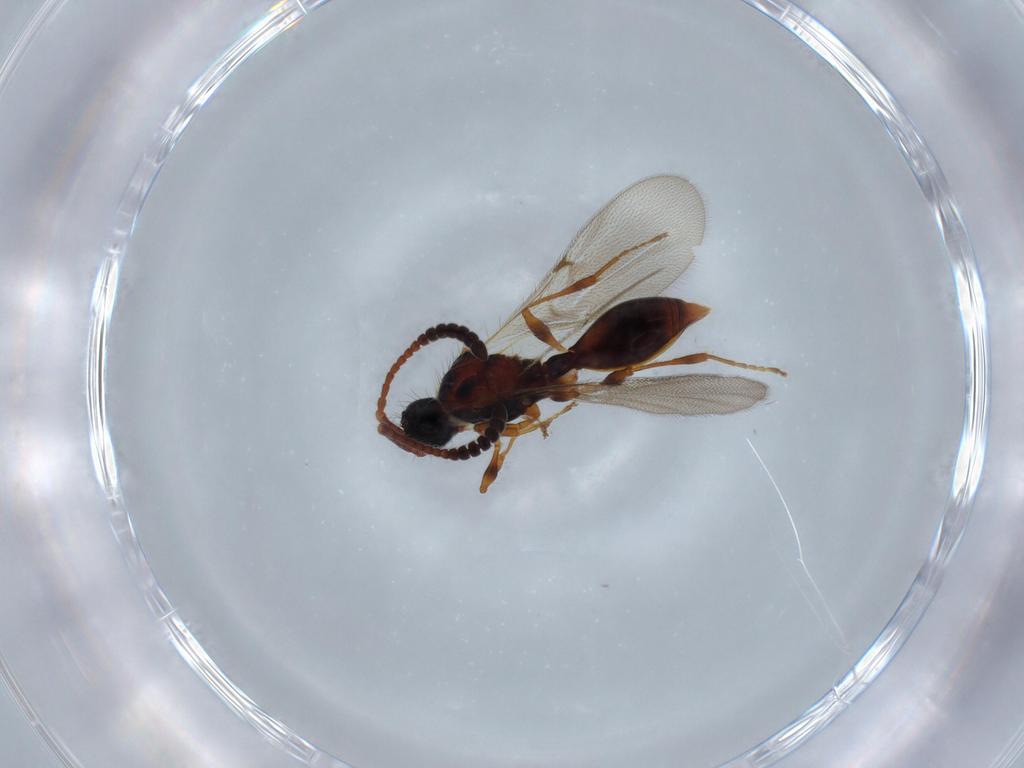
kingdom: Animalia
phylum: Arthropoda
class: Insecta
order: Hymenoptera
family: Diapriidae
